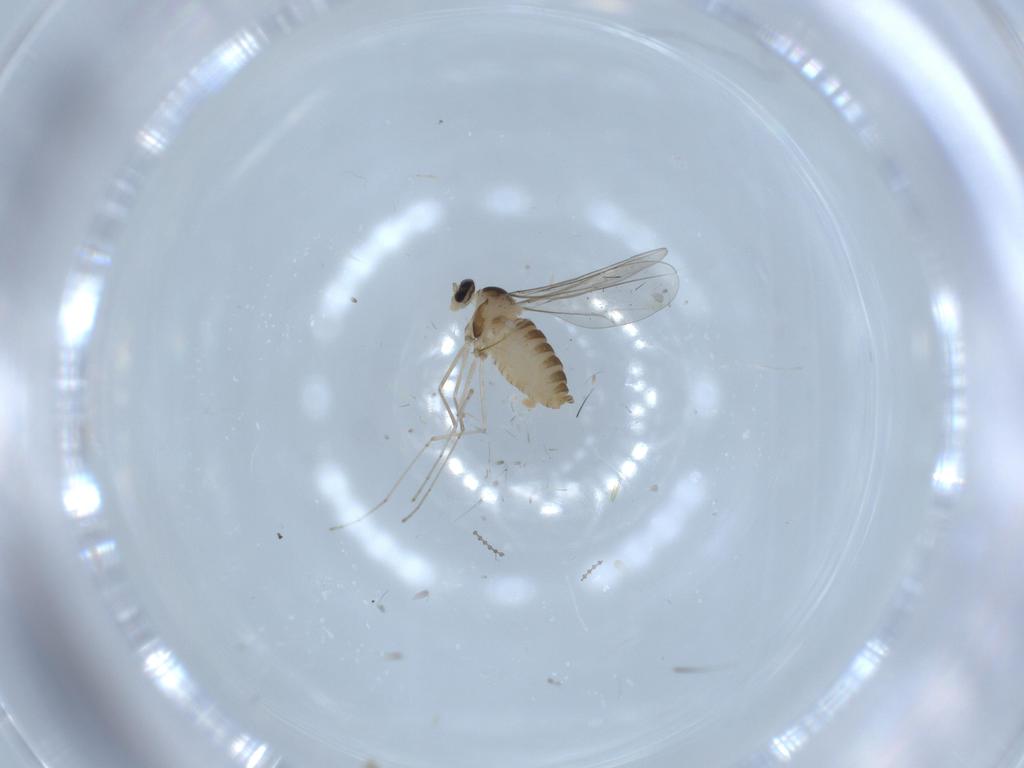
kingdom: Animalia
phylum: Arthropoda
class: Insecta
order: Diptera
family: Cecidomyiidae
